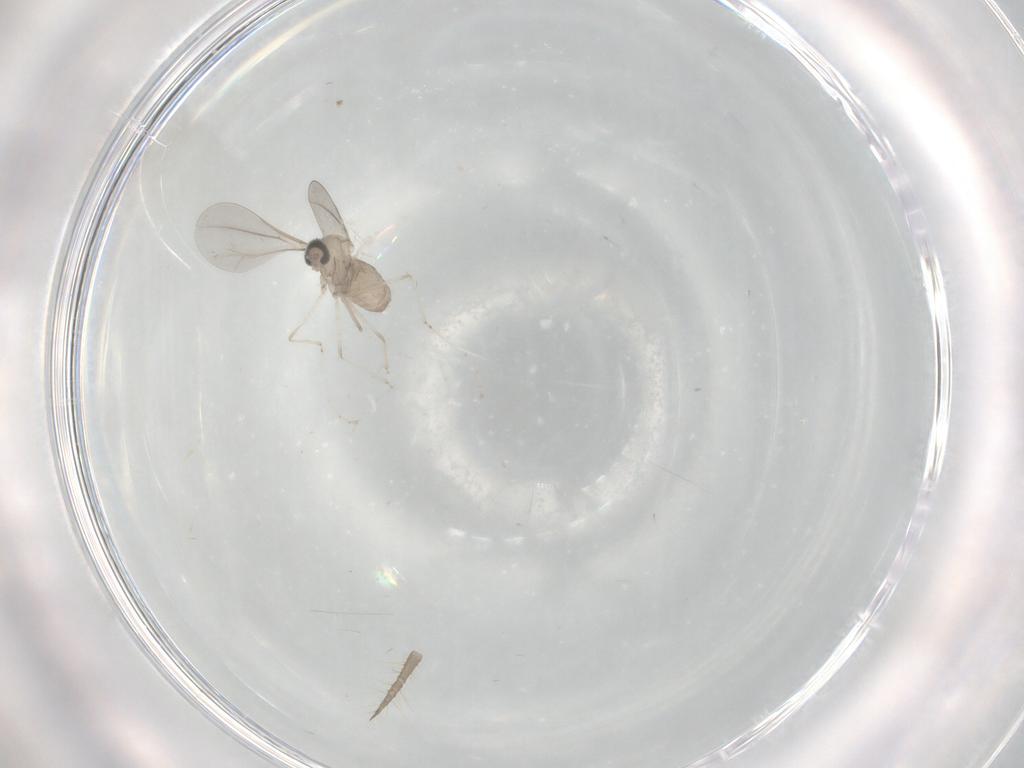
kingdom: Animalia
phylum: Arthropoda
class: Insecta
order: Diptera
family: Cecidomyiidae
